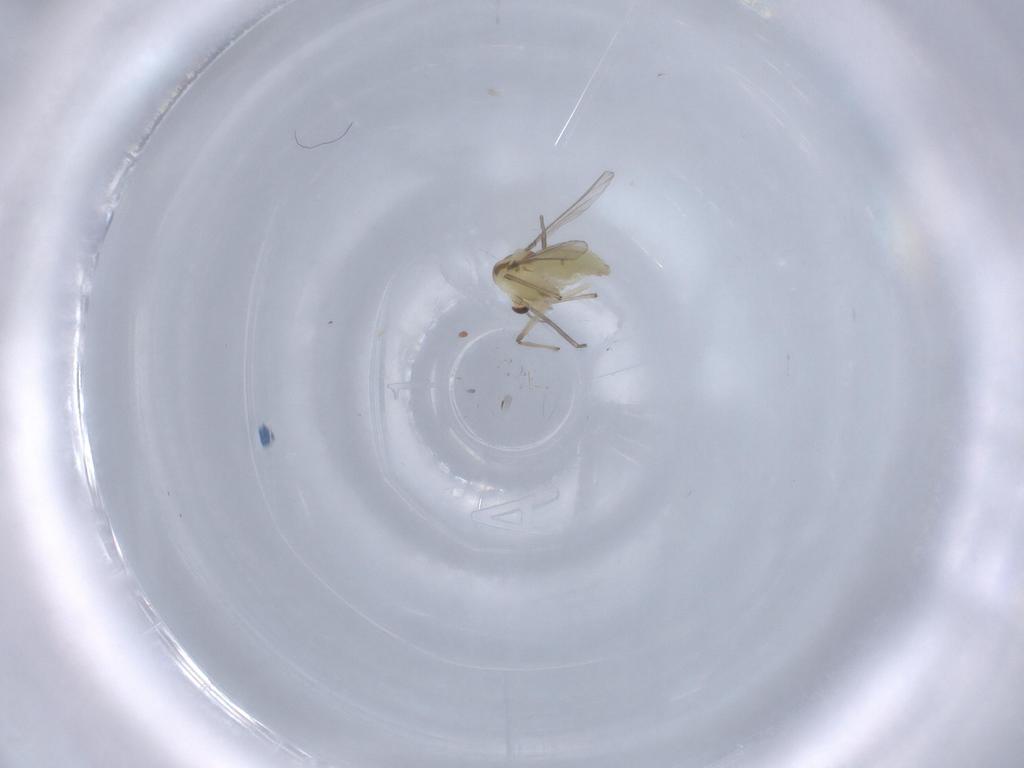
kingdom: Animalia
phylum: Arthropoda
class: Insecta
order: Diptera
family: Chironomidae
